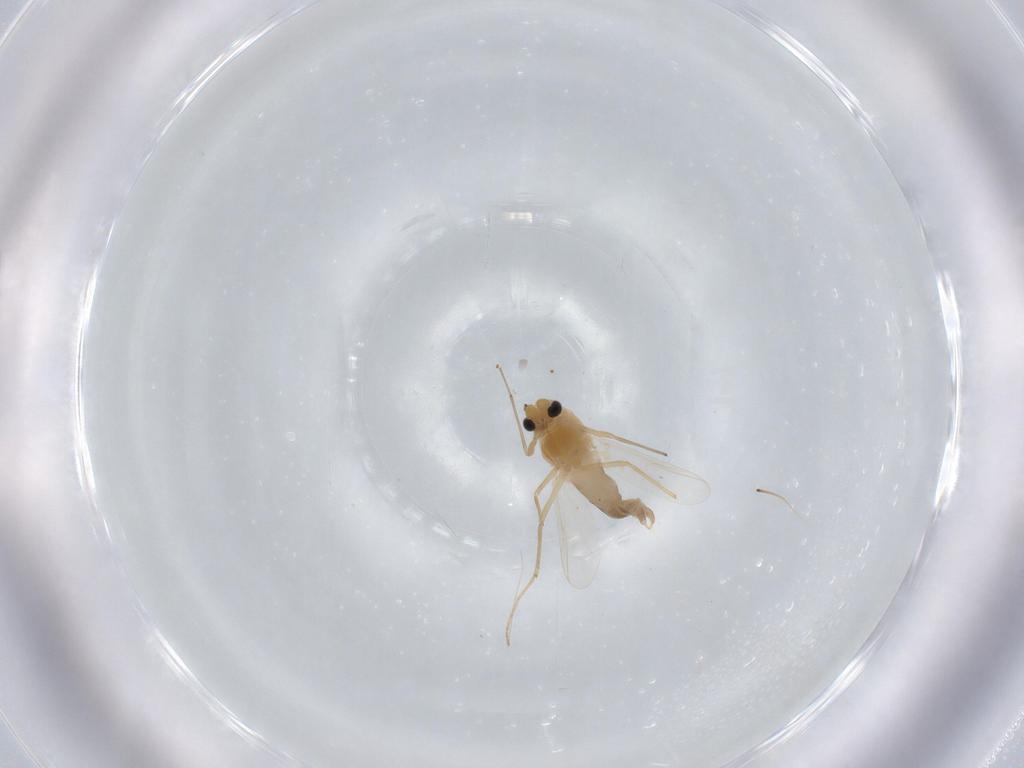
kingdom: Animalia
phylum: Arthropoda
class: Insecta
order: Diptera
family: Chironomidae
